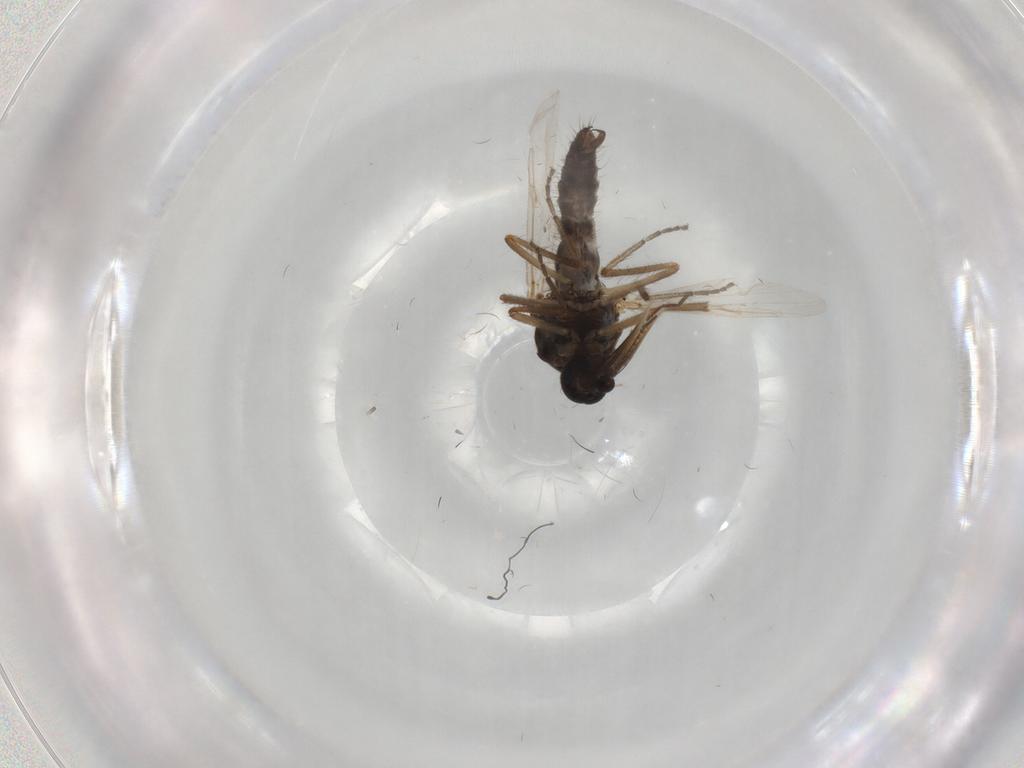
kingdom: Animalia
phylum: Arthropoda
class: Insecta
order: Diptera
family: Ceratopogonidae
